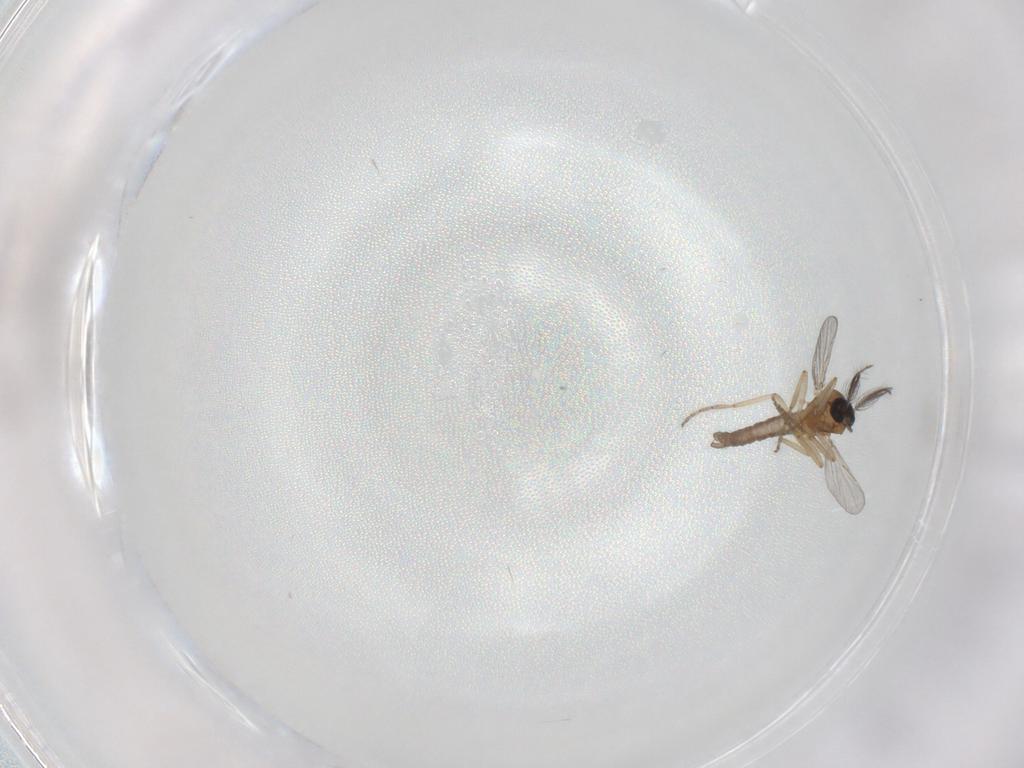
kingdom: Animalia
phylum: Arthropoda
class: Insecta
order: Diptera
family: Ceratopogonidae
